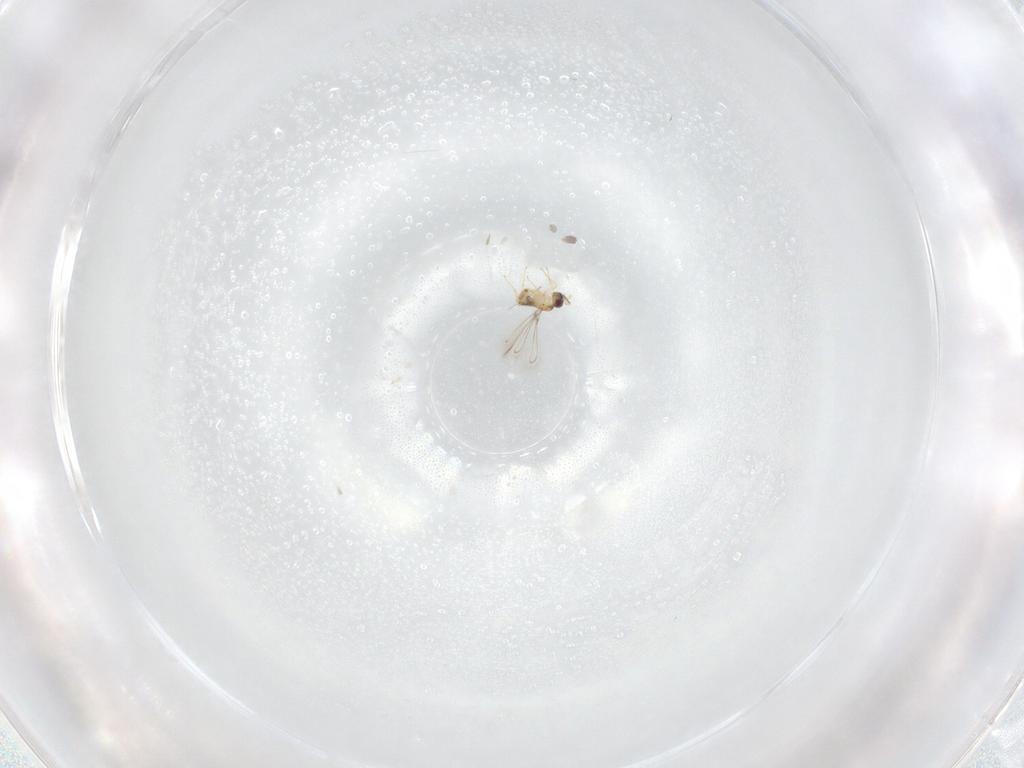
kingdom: Animalia
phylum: Arthropoda
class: Insecta
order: Hymenoptera
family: Mymaridae
